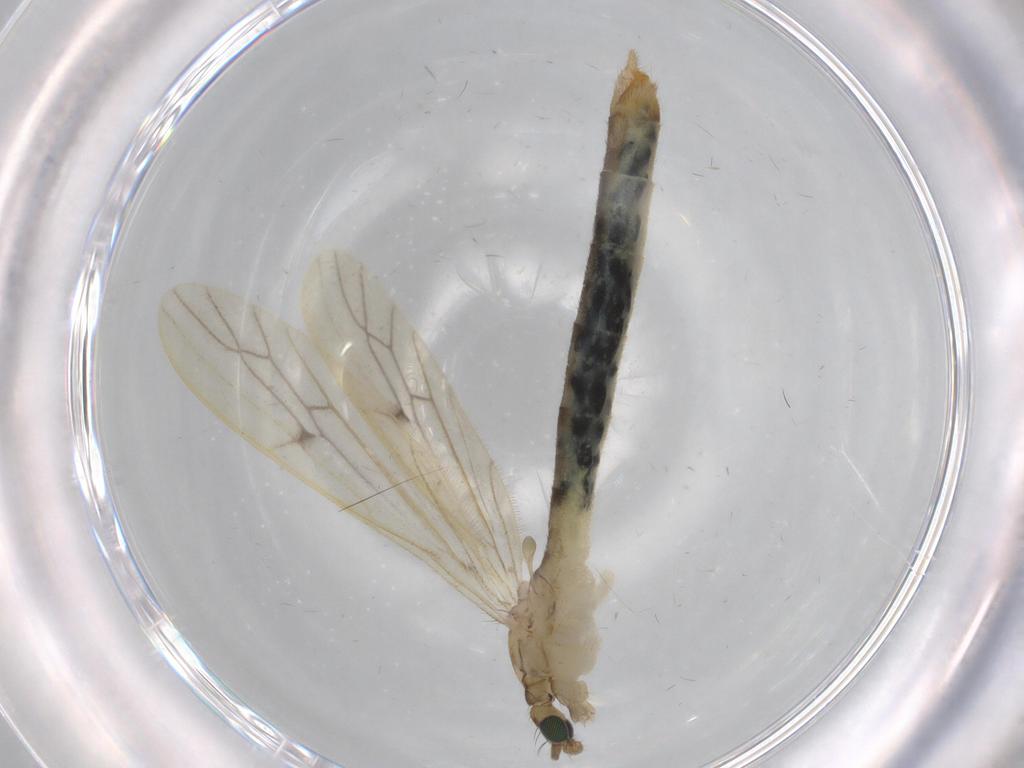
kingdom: Animalia
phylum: Arthropoda
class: Insecta
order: Diptera
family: Limoniidae
